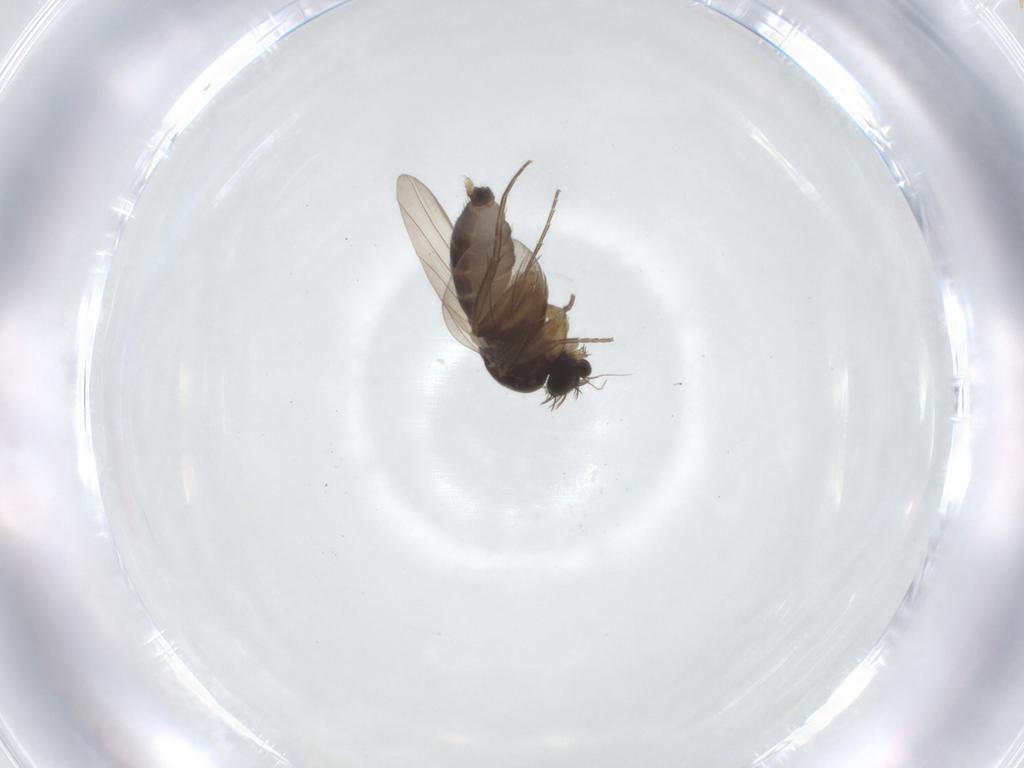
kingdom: Animalia
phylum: Arthropoda
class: Insecta
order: Diptera
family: Phoridae
